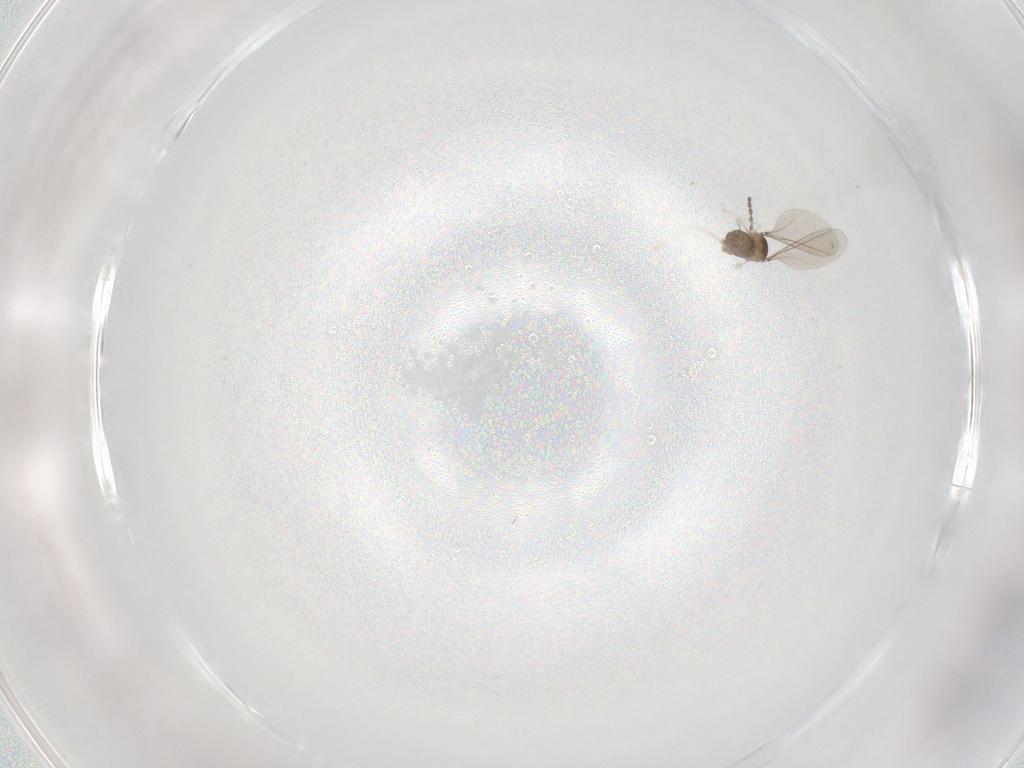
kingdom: Animalia
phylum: Arthropoda
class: Insecta
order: Diptera
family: Cecidomyiidae
